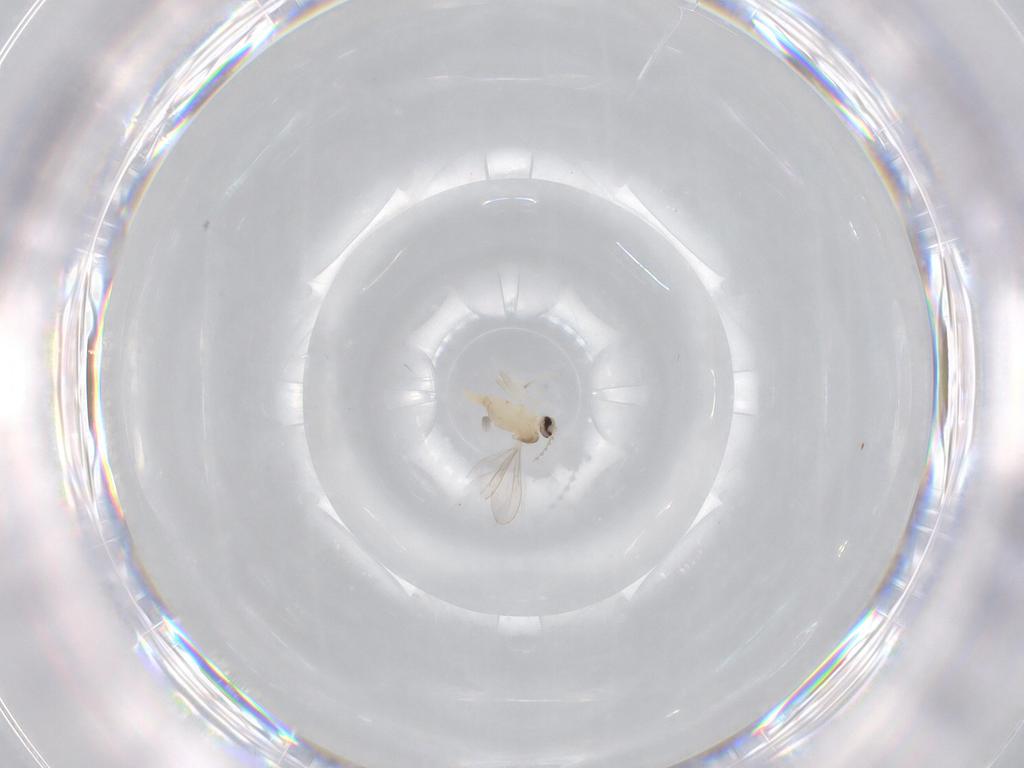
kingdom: Animalia
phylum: Arthropoda
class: Insecta
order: Diptera
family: Cecidomyiidae
